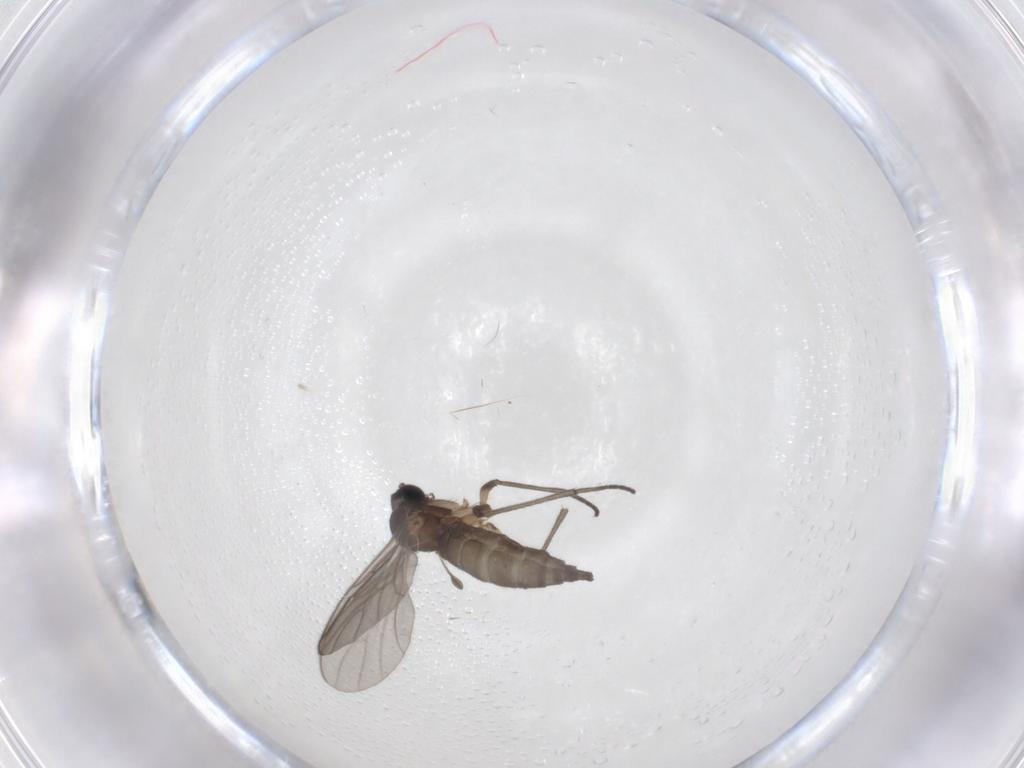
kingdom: Animalia
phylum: Arthropoda
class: Insecta
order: Diptera
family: Sciaridae
